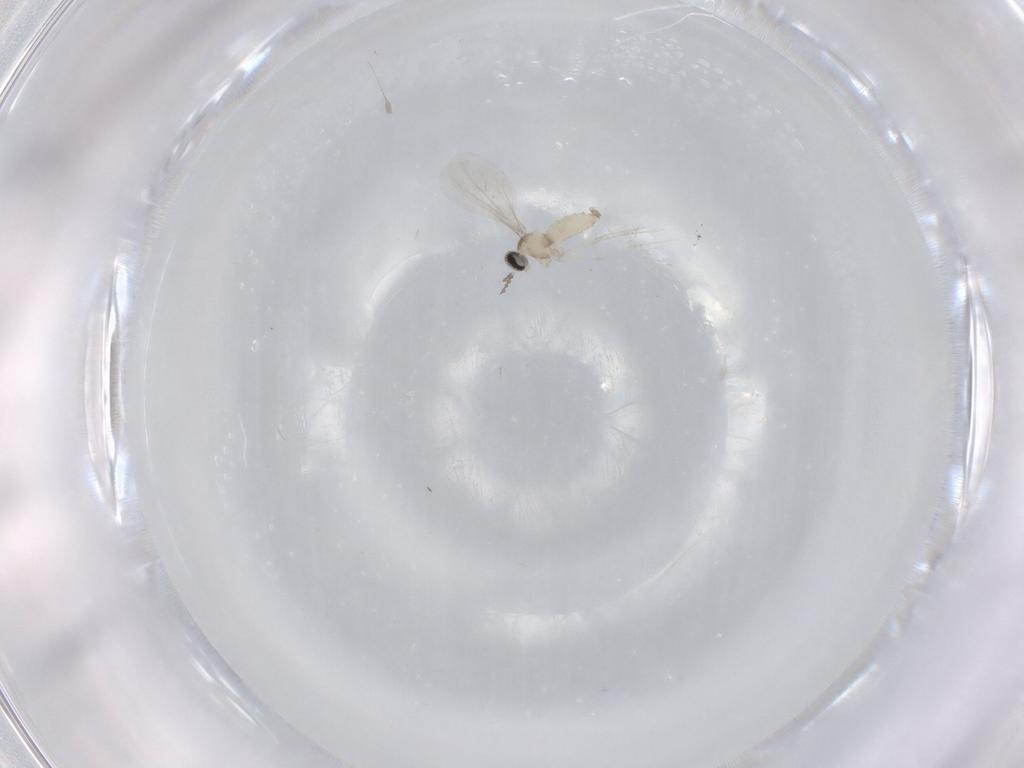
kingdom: Animalia
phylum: Arthropoda
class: Insecta
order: Diptera
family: Cecidomyiidae
